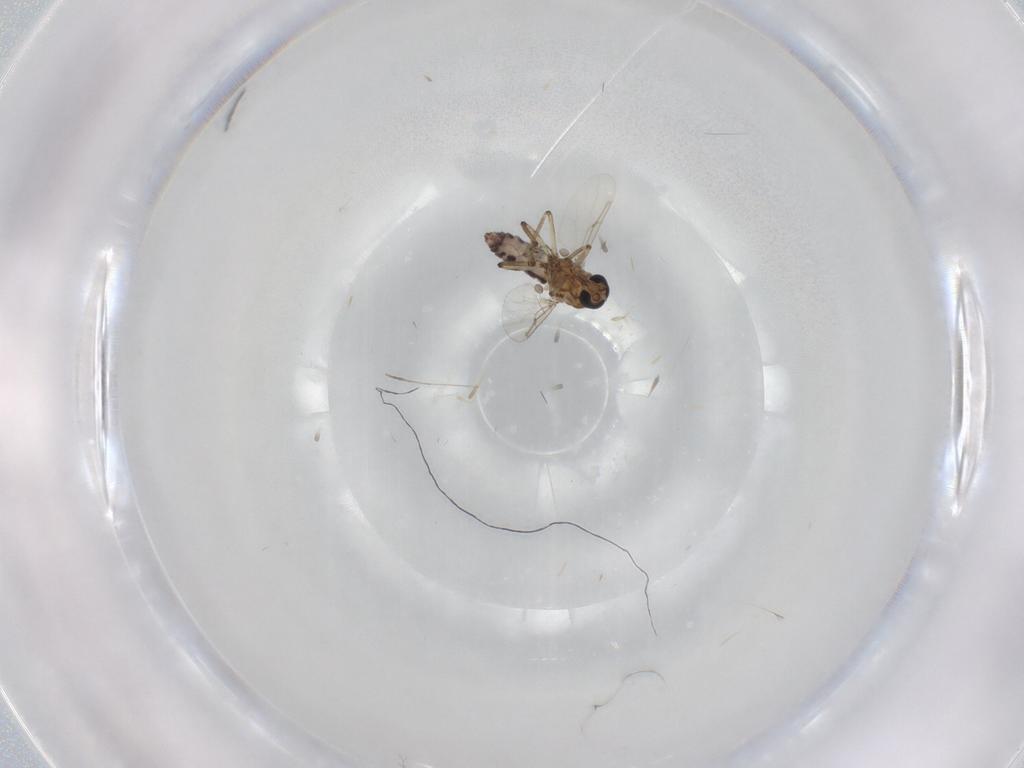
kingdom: Animalia
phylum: Arthropoda
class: Insecta
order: Diptera
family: Ceratopogonidae
